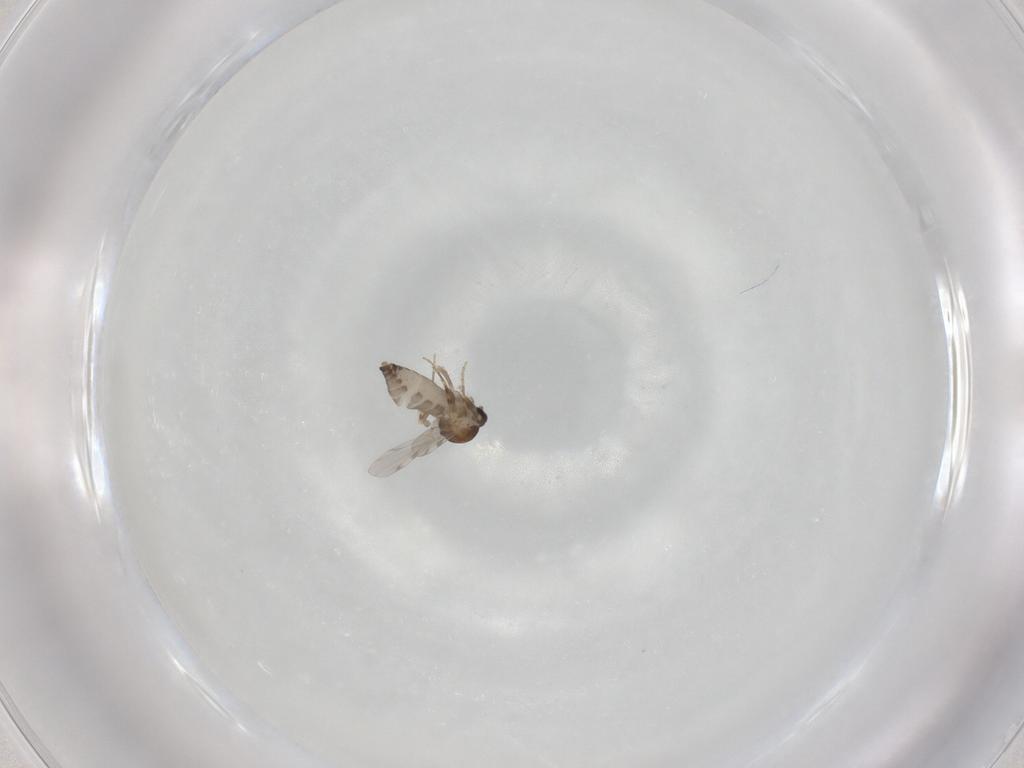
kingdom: Animalia
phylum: Arthropoda
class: Insecta
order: Diptera
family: Ceratopogonidae
